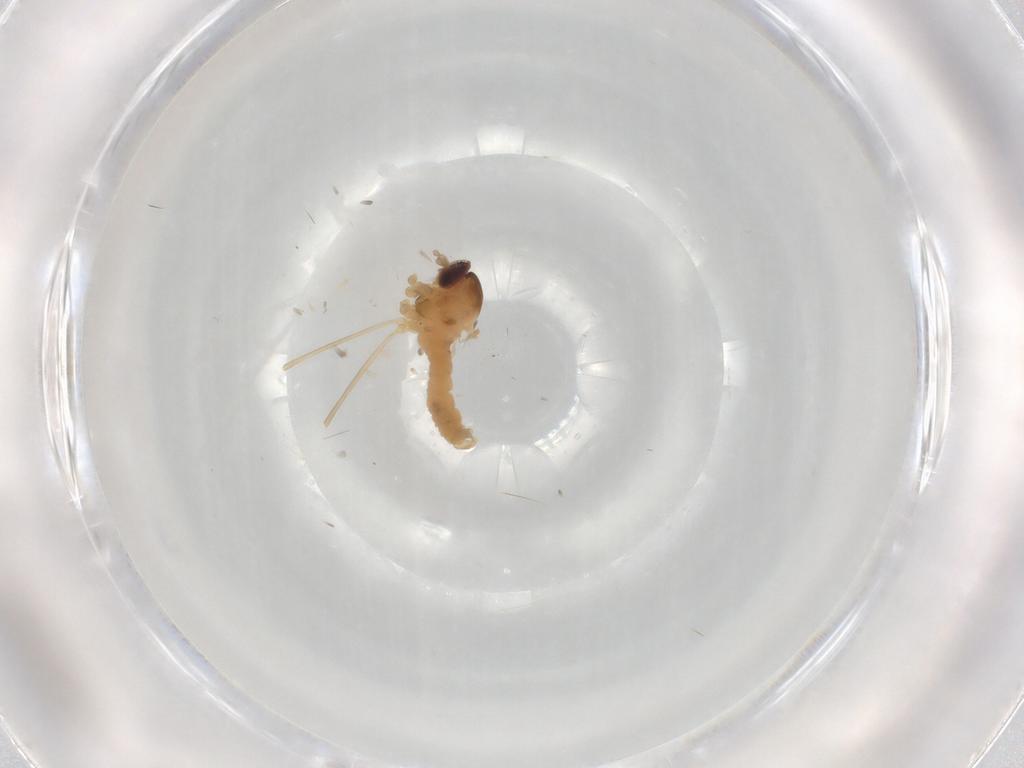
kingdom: Animalia
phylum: Arthropoda
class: Insecta
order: Diptera
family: Cecidomyiidae
